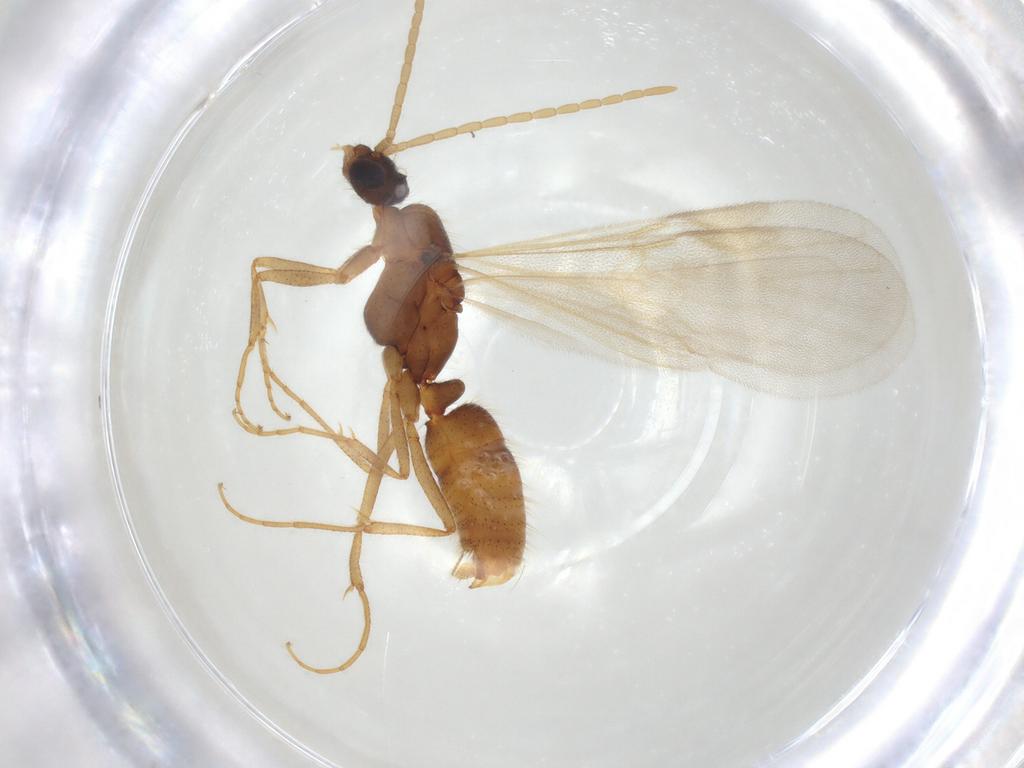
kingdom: Animalia
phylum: Arthropoda
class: Insecta
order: Hymenoptera
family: Formicidae
